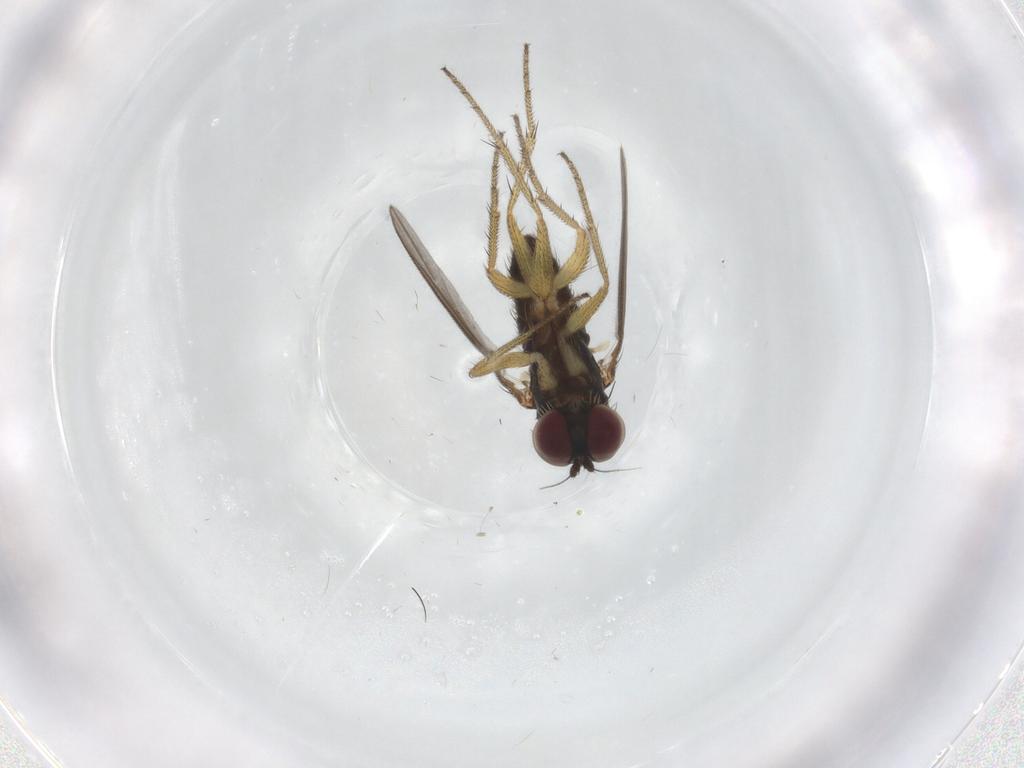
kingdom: Animalia
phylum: Arthropoda
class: Insecta
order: Diptera
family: Dolichopodidae
